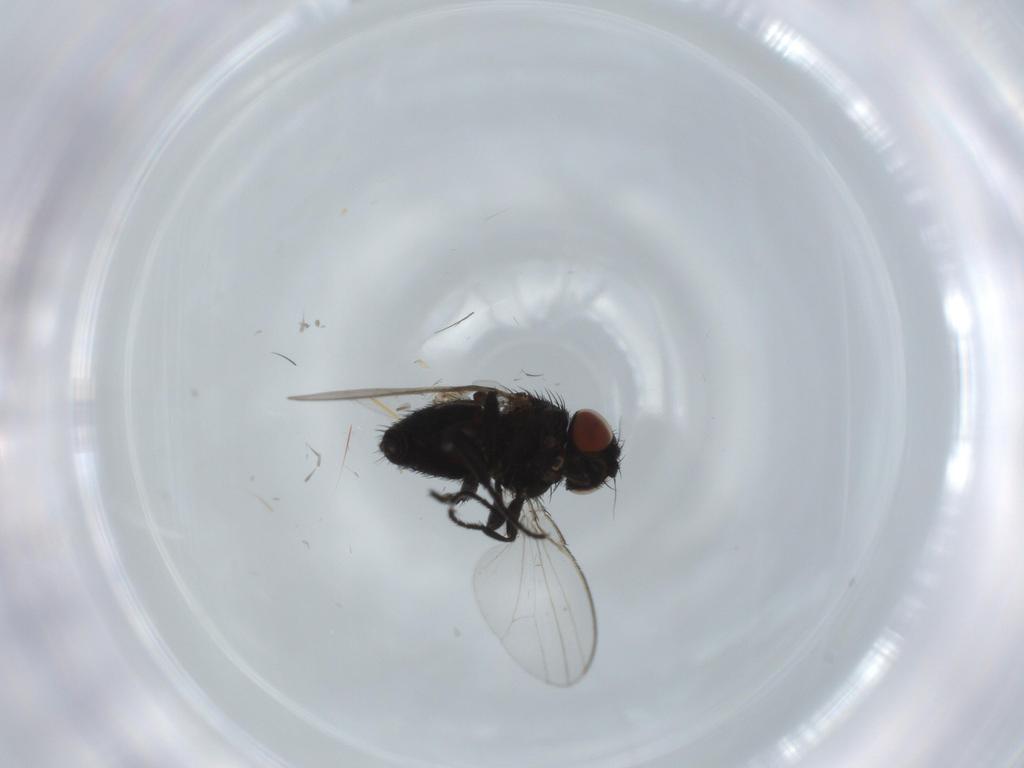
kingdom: Animalia
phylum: Arthropoda
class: Insecta
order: Diptera
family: Milichiidae
